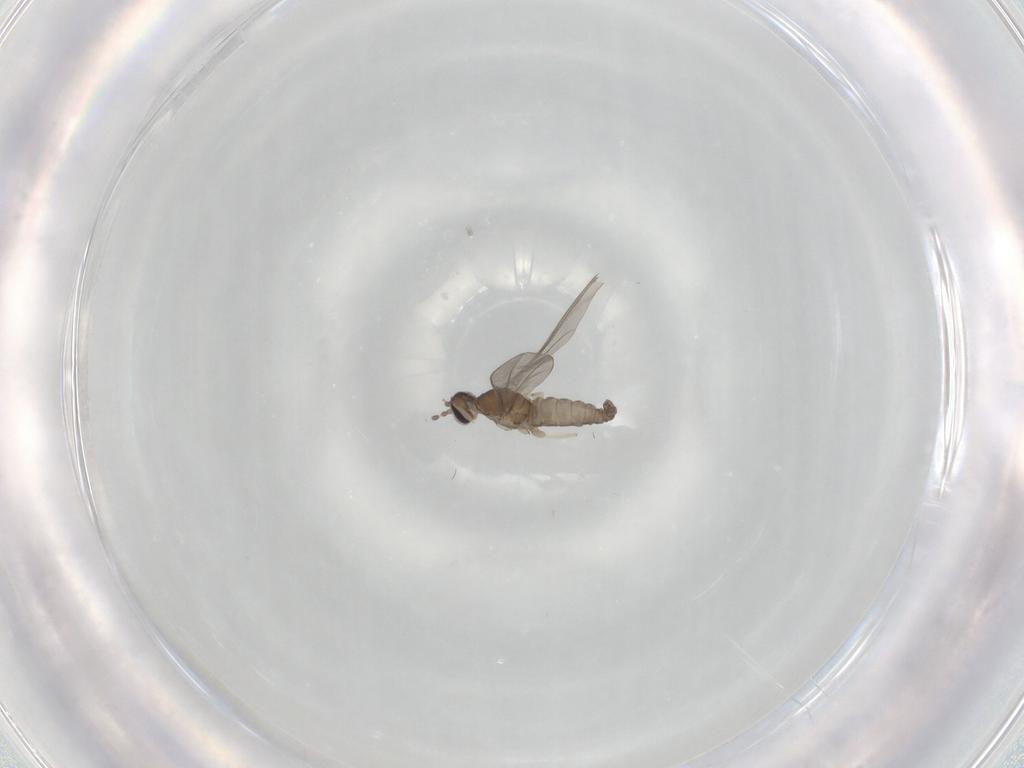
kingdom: Animalia
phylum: Arthropoda
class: Insecta
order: Diptera
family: Cecidomyiidae
